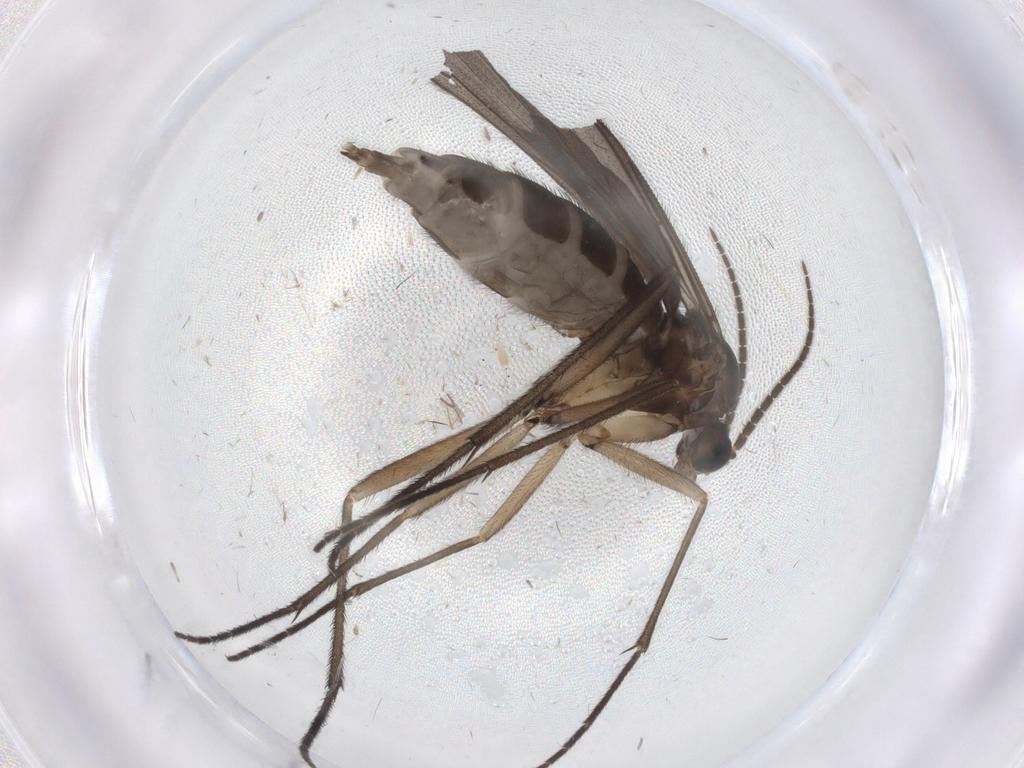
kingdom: Animalia
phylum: Arthropoda
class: Insecta
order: Diptera
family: Sciaridae
